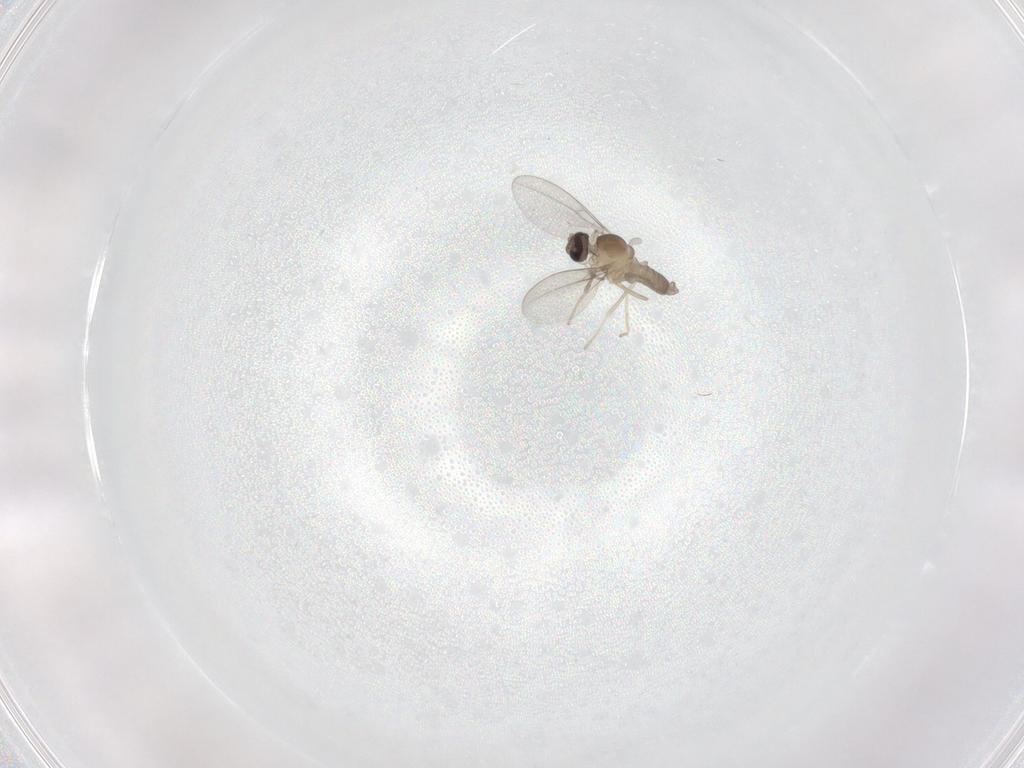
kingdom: Animalia
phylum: Arthropoda
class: Insecta
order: Diptera
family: Cecidomyiidae
